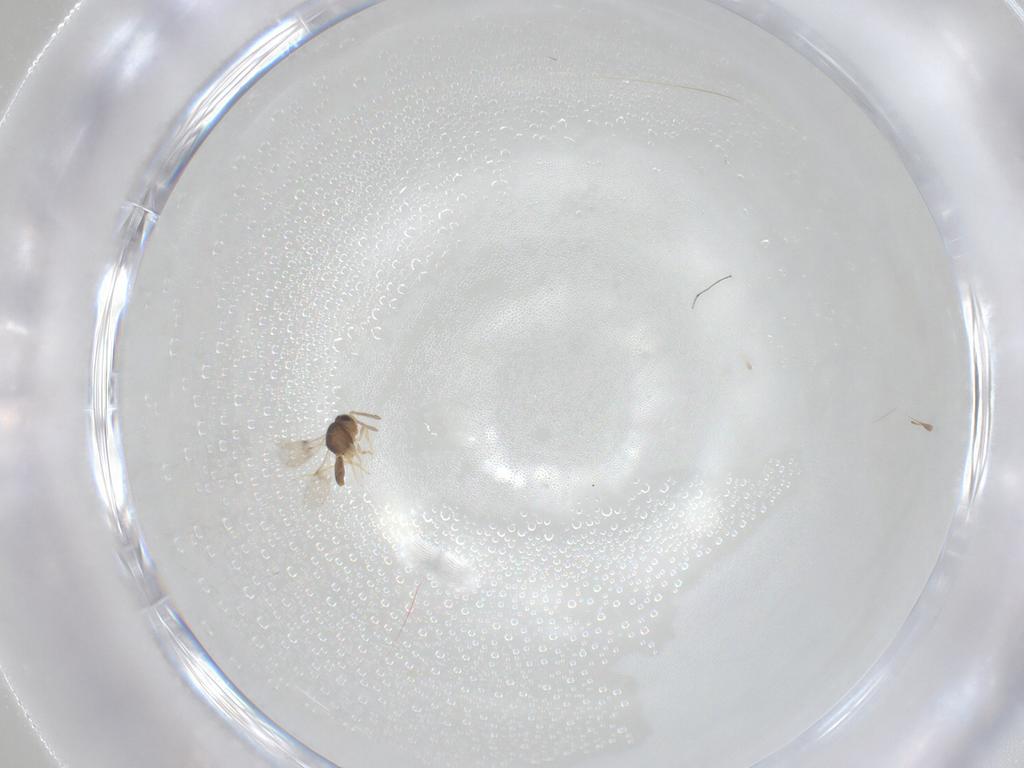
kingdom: Animalia
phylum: Arthropoda
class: Insecta
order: Hymenoptera
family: Scelionidae
